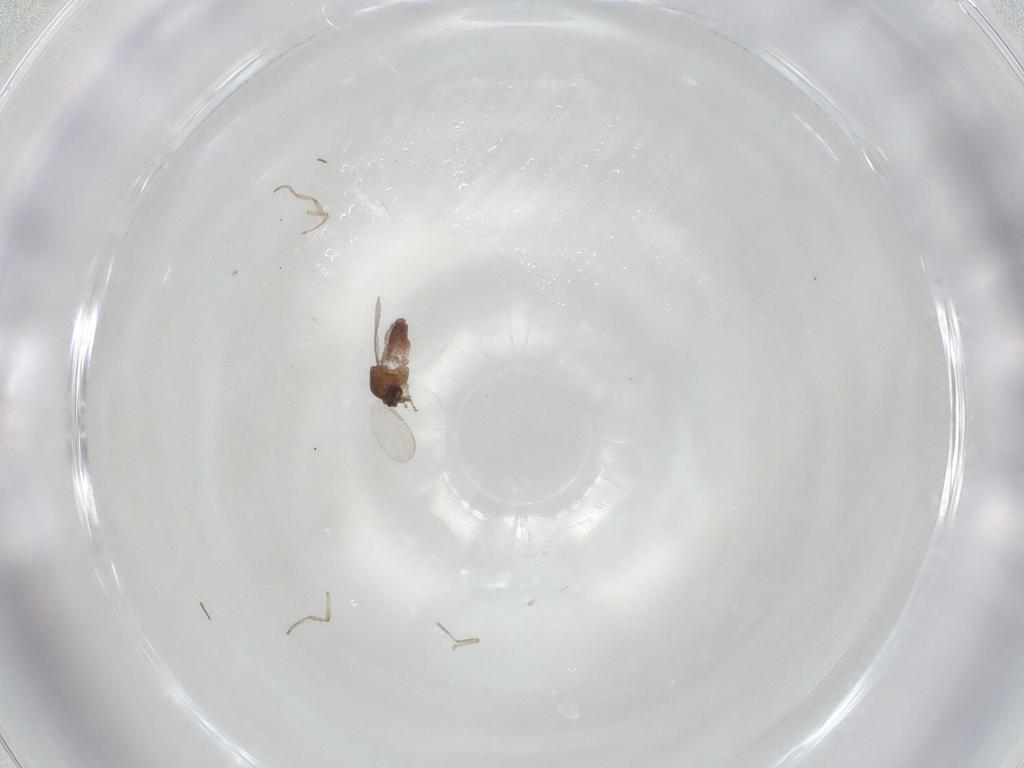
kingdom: Animalia
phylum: Arthropoda
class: Insecta
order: Diptera
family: Ceratopogonidae
